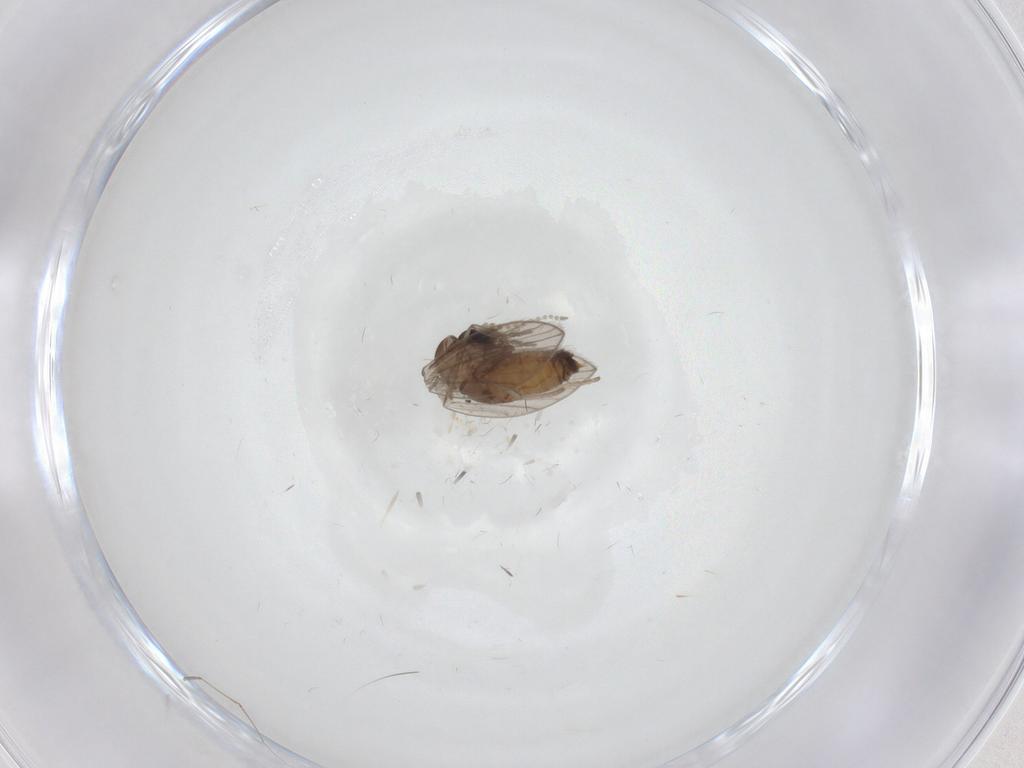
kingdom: Animalia
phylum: Arthropoda
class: Insecta
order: Diptera
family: Psychodidae
